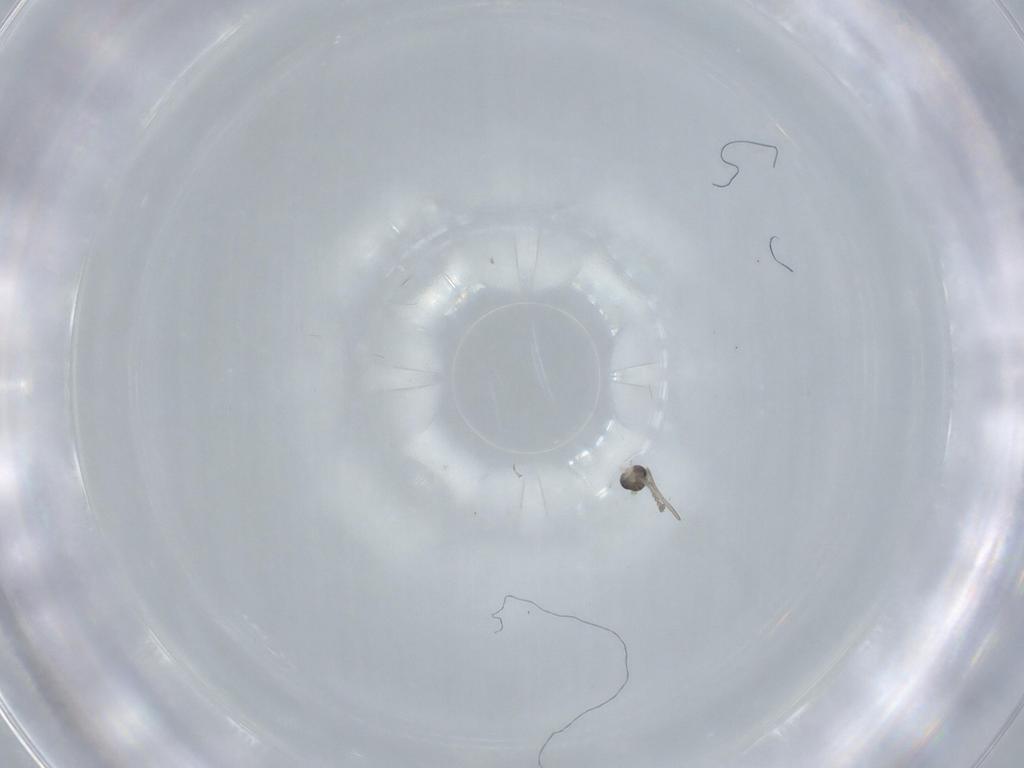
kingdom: Animalia
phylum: Arthropoda
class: Insecta
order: Diptera
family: Cecidomyiidae
